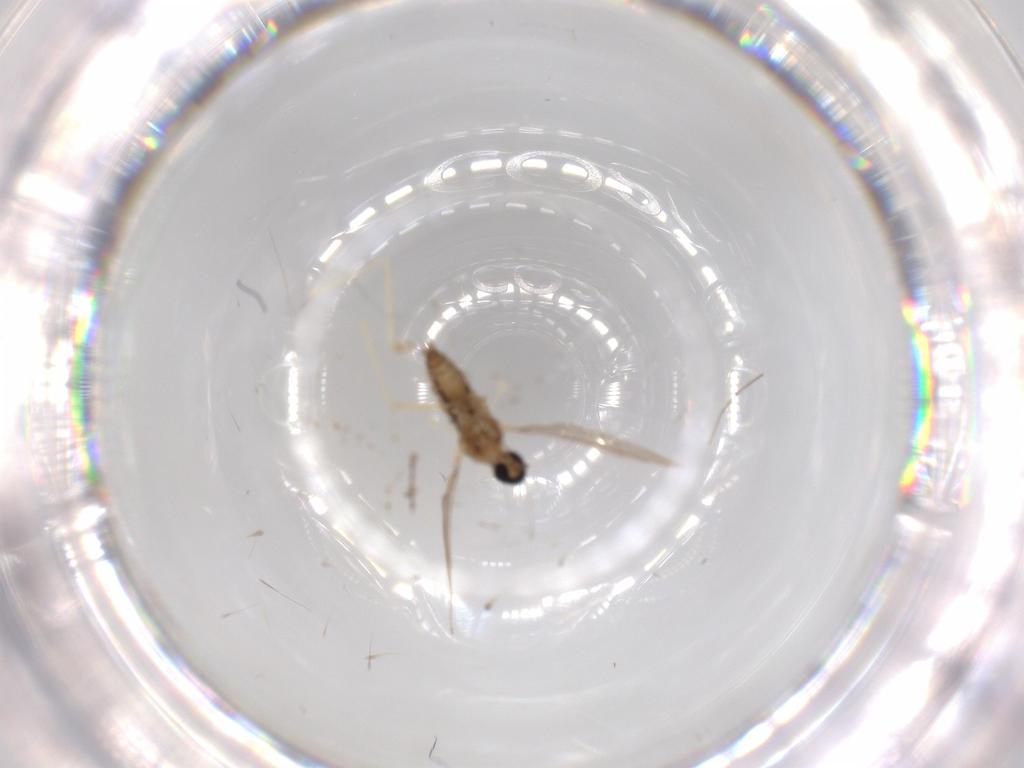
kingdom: Animalia
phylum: Arthropoda
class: Insecta
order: Diptera
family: Cecidomyiidae
